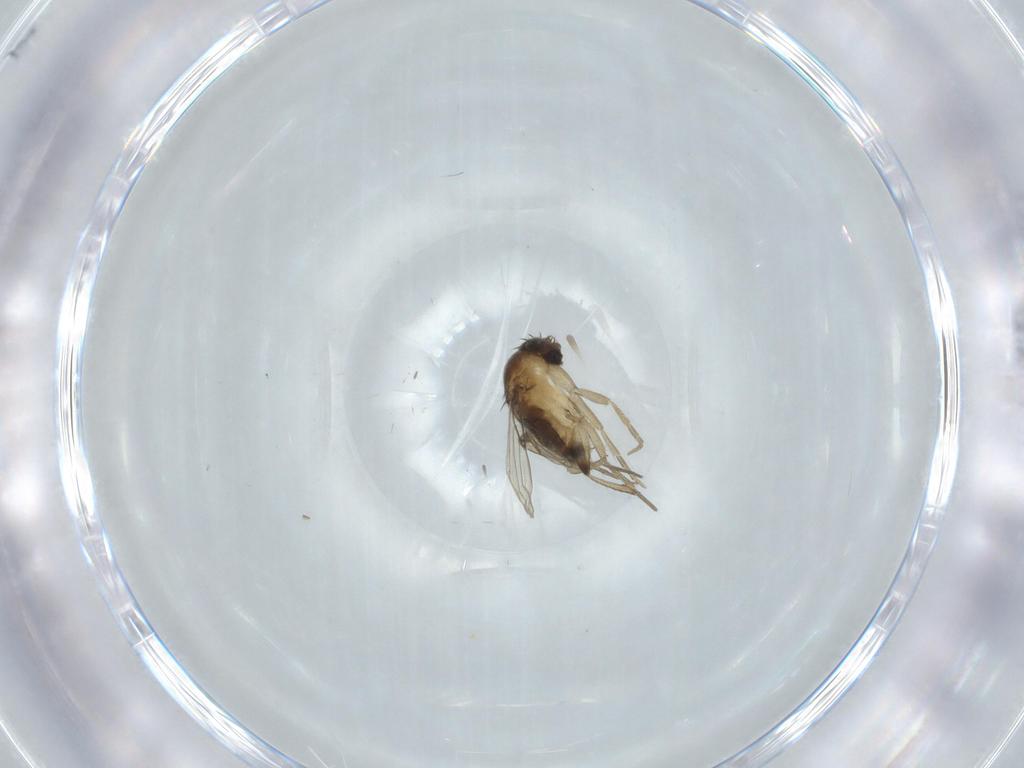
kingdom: Animalia
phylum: Arthropoda
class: Insecta
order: Diptera
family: Chironomidae
